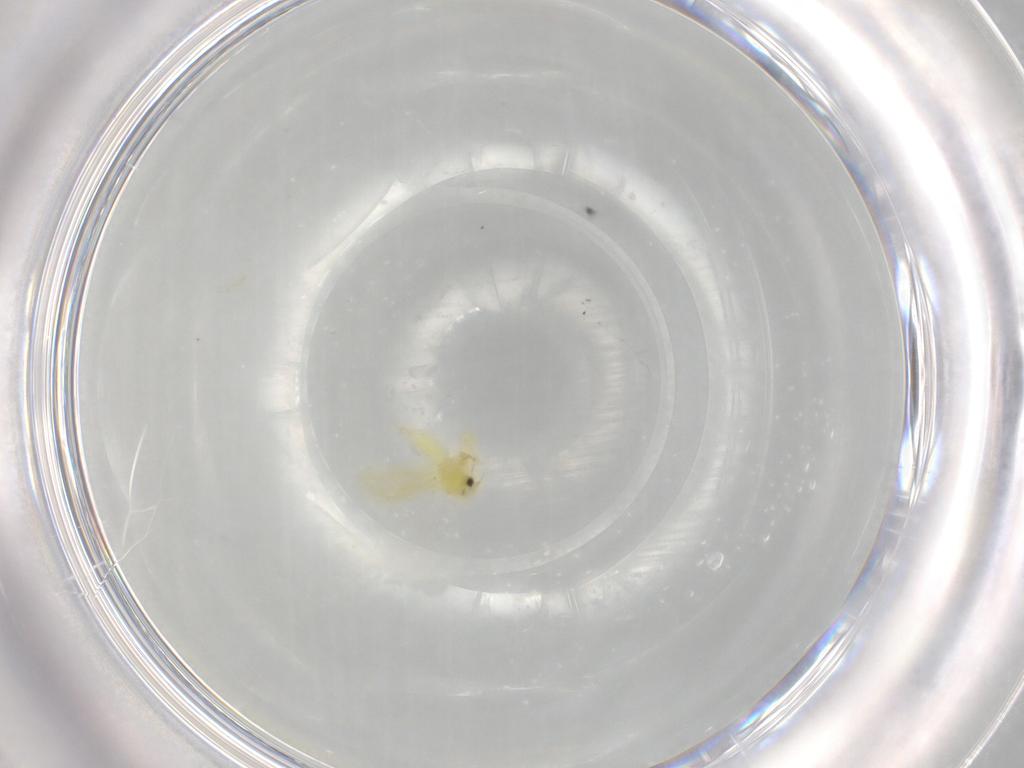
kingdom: Animalia
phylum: Arthropoda
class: Insecta
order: Hemiptera
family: Aleyrodidae
